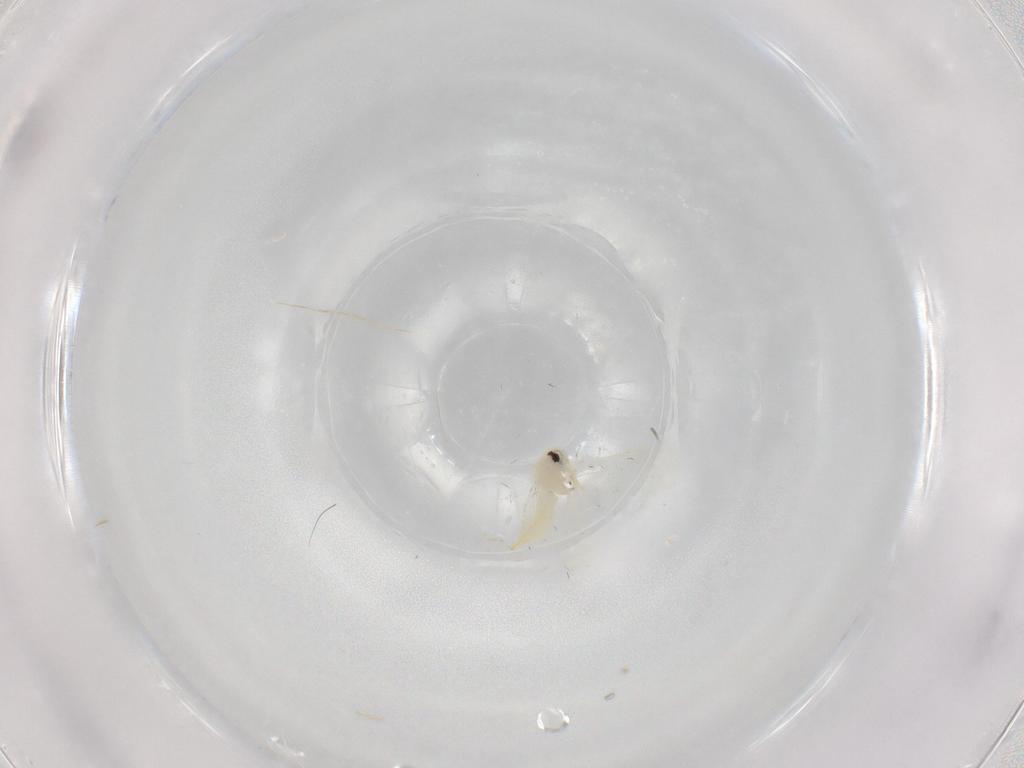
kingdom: Animalia
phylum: Arthropoda
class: Insecta
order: Hemiptera
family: Aleyrodidae
